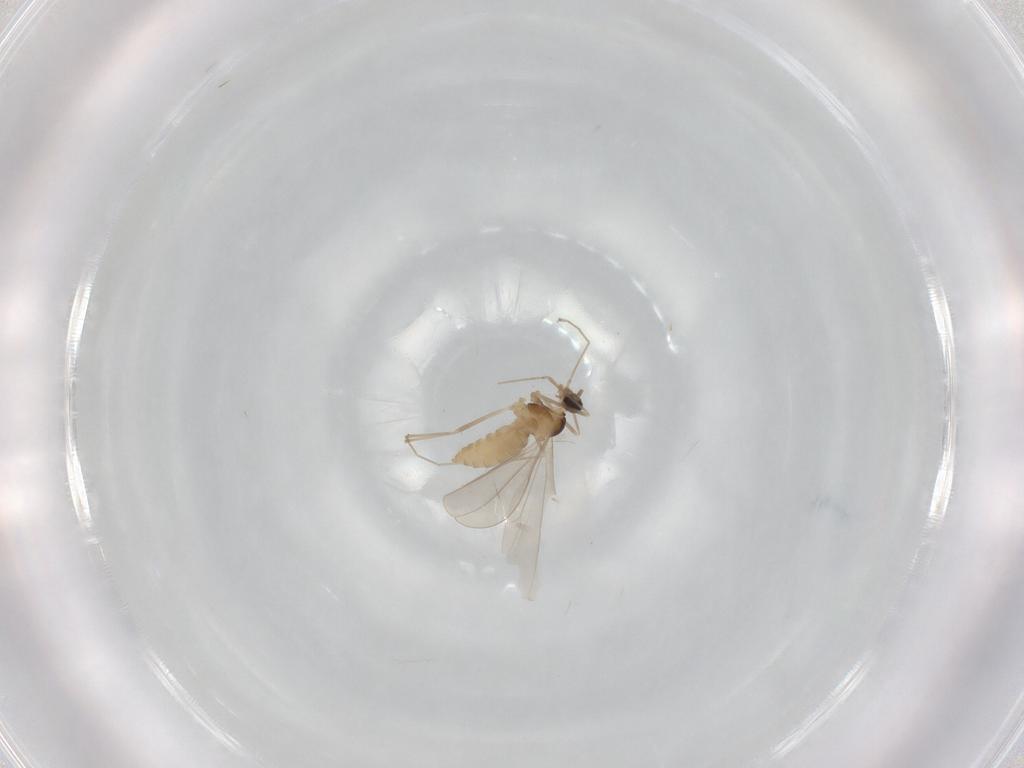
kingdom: Animalia
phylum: Arthropoda
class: Insecta
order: Diptera
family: Cecidomyiidae
